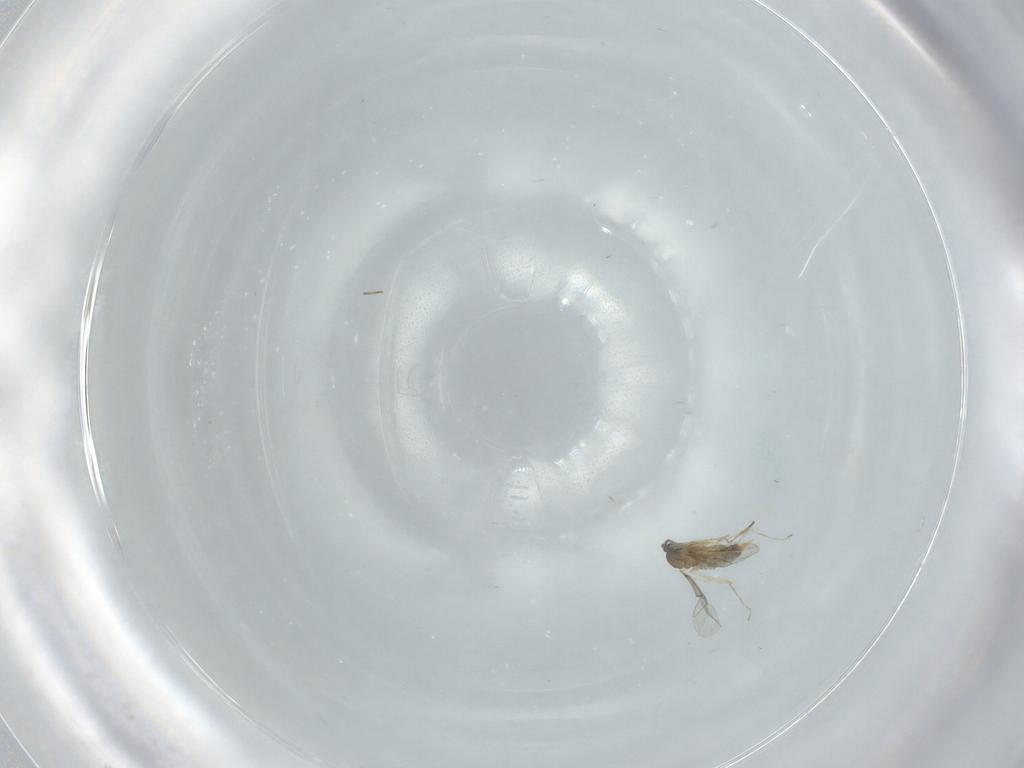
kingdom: Animalia
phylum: Arthropoda
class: Insecta
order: Diptera
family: Cecidomyiidae
